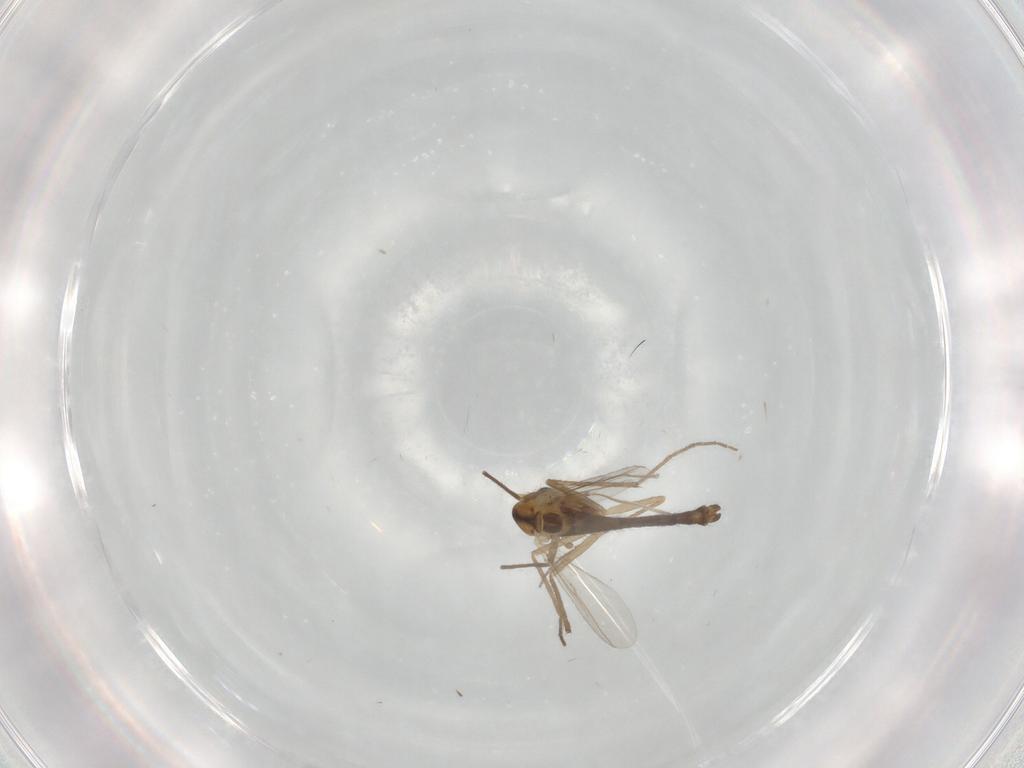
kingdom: Animalia
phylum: Arthropoda
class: Insecta
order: Diptera
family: Chironomidae
